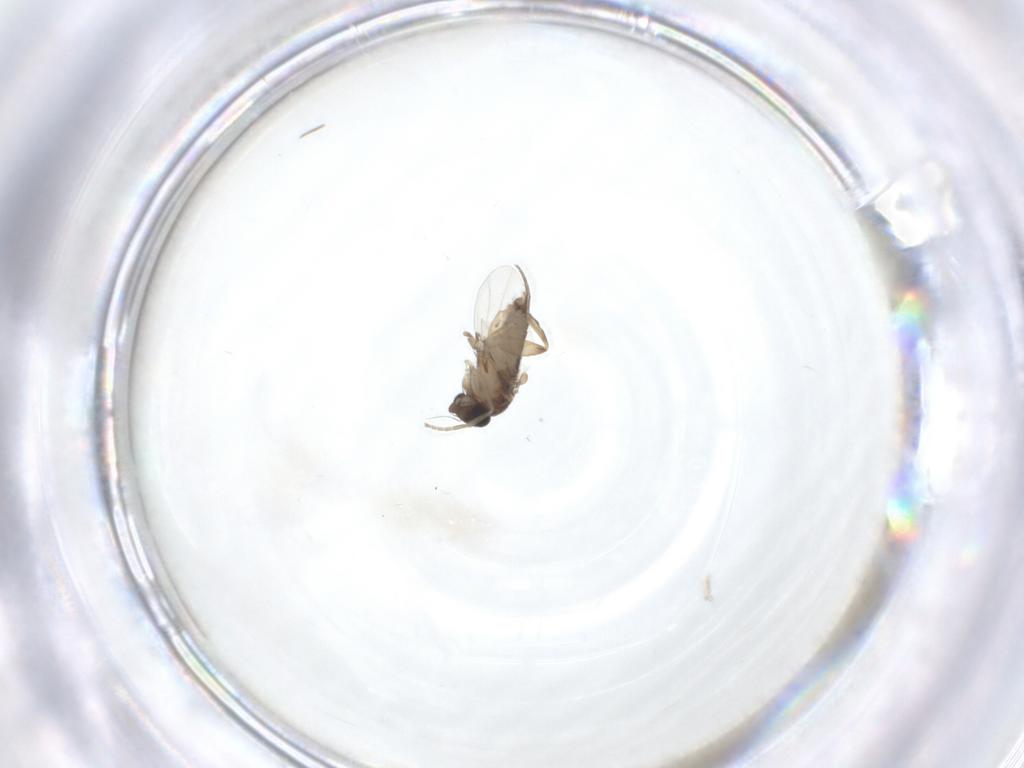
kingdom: Animalia
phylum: Arthropoda
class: Insecta
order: Diptera
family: Phoridae
